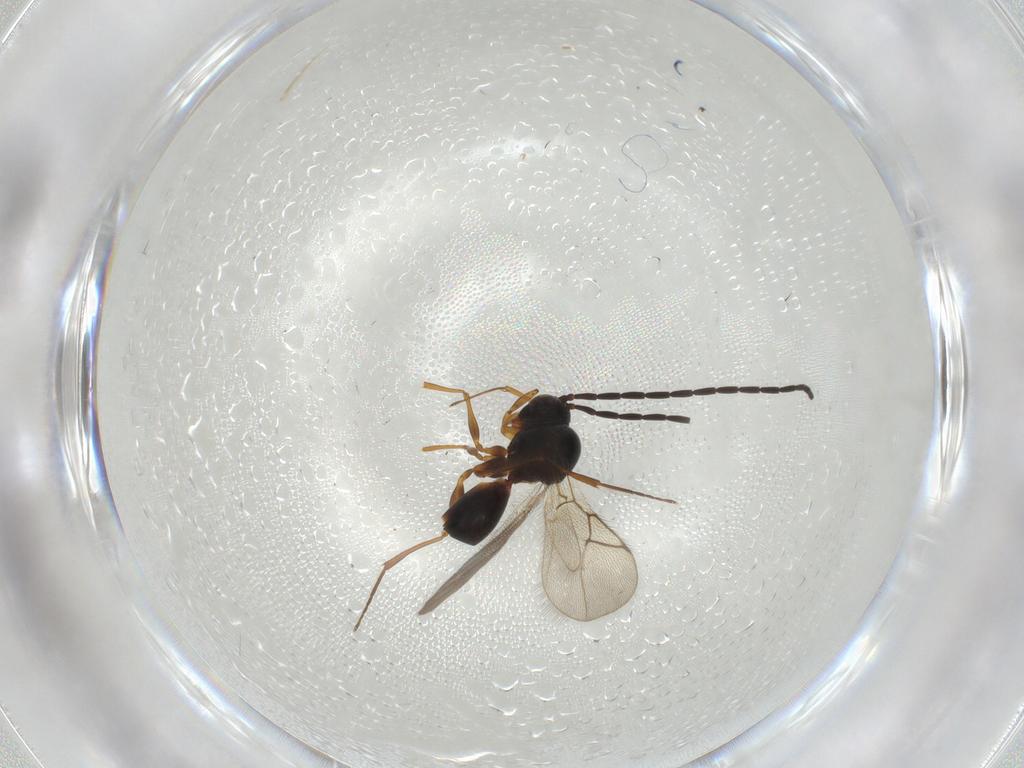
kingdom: Animalia
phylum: Arthropoda
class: Insecta
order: Hymenoptera
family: Figitidae
